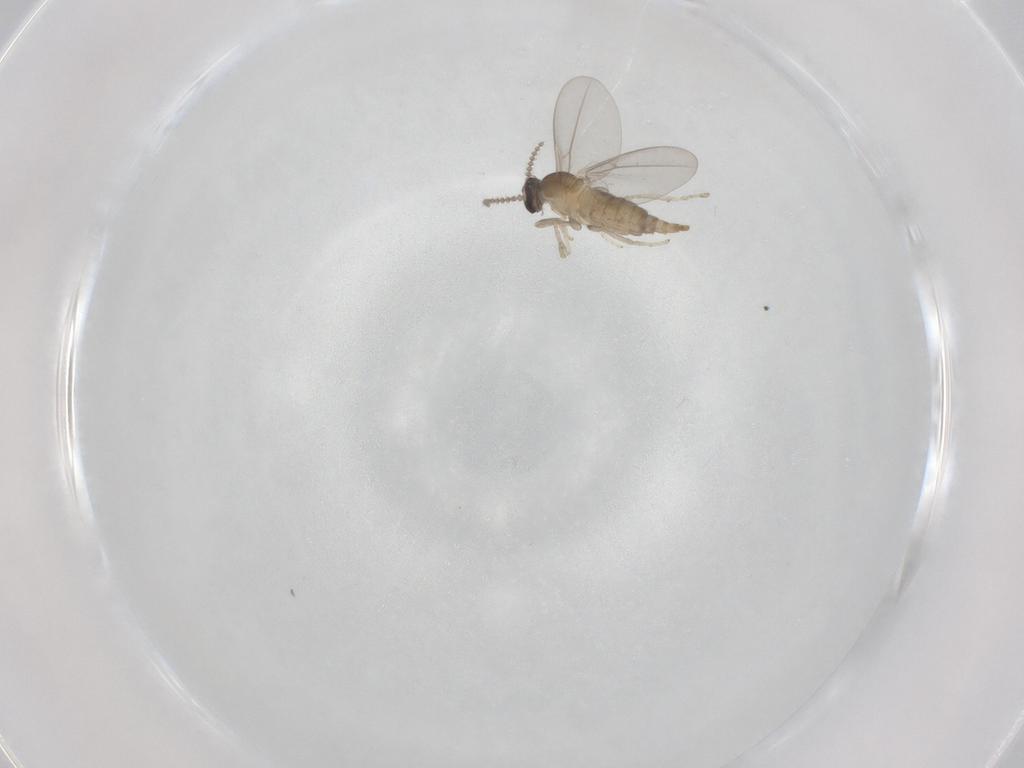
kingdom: Animalia
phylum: Arthropoda
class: Insecta
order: Diptera
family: Cecidomyiidae
